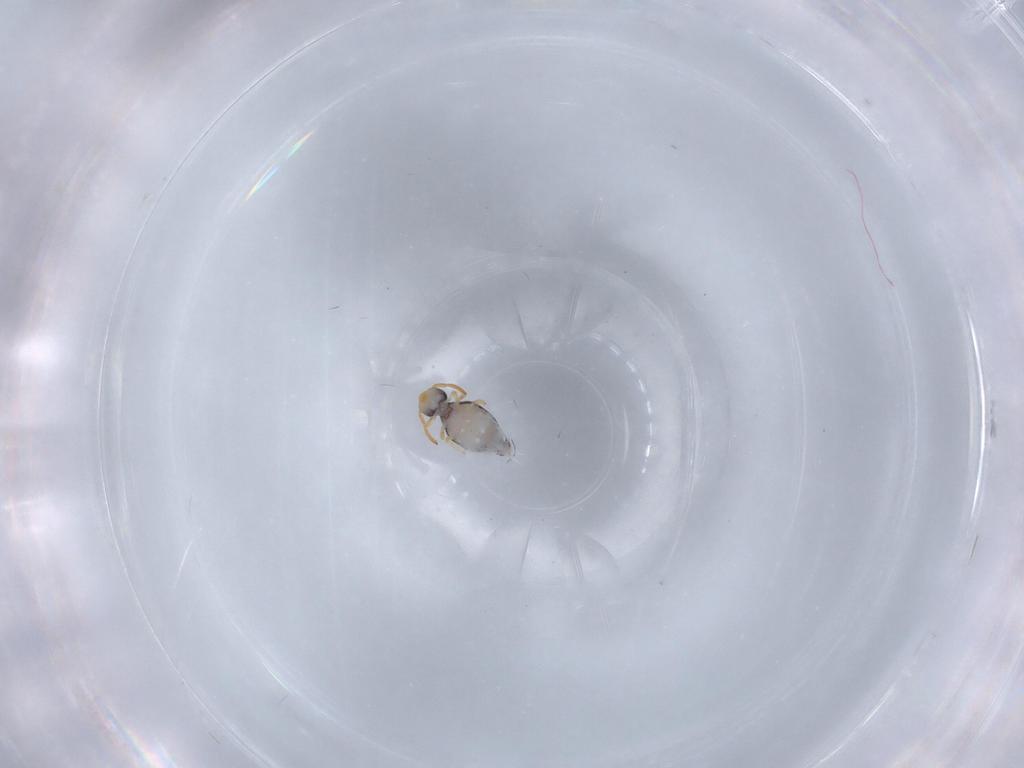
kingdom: Animalia
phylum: Arthropoda
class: Collembola
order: Symphypleona
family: Katiannidae
